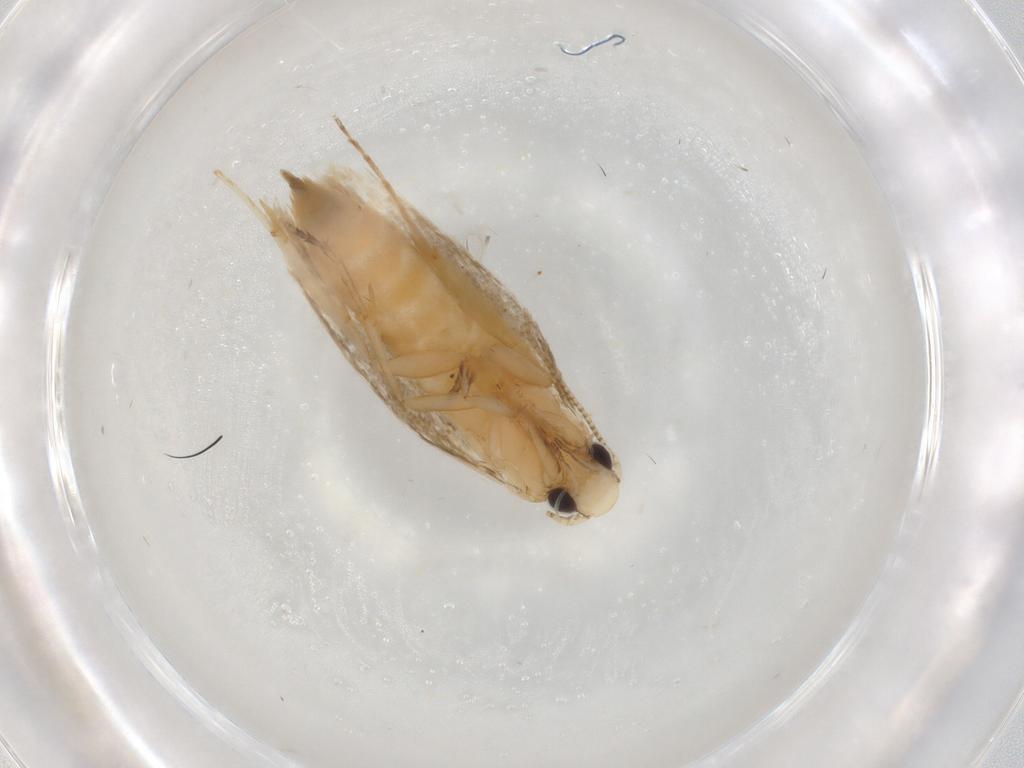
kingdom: Animalia
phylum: Arthropoda
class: Insecta
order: Lepidoptera
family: Tineidae
